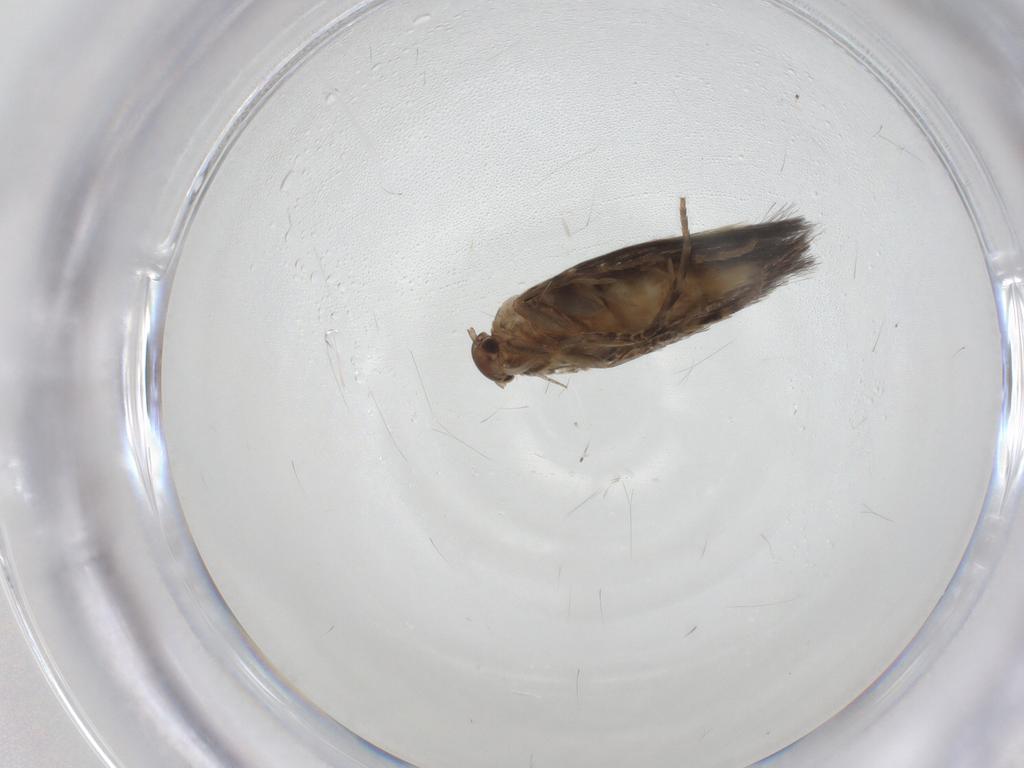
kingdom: Animalia
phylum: Arthropoda
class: Insecta
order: Lepidoptera
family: Elachistidae
